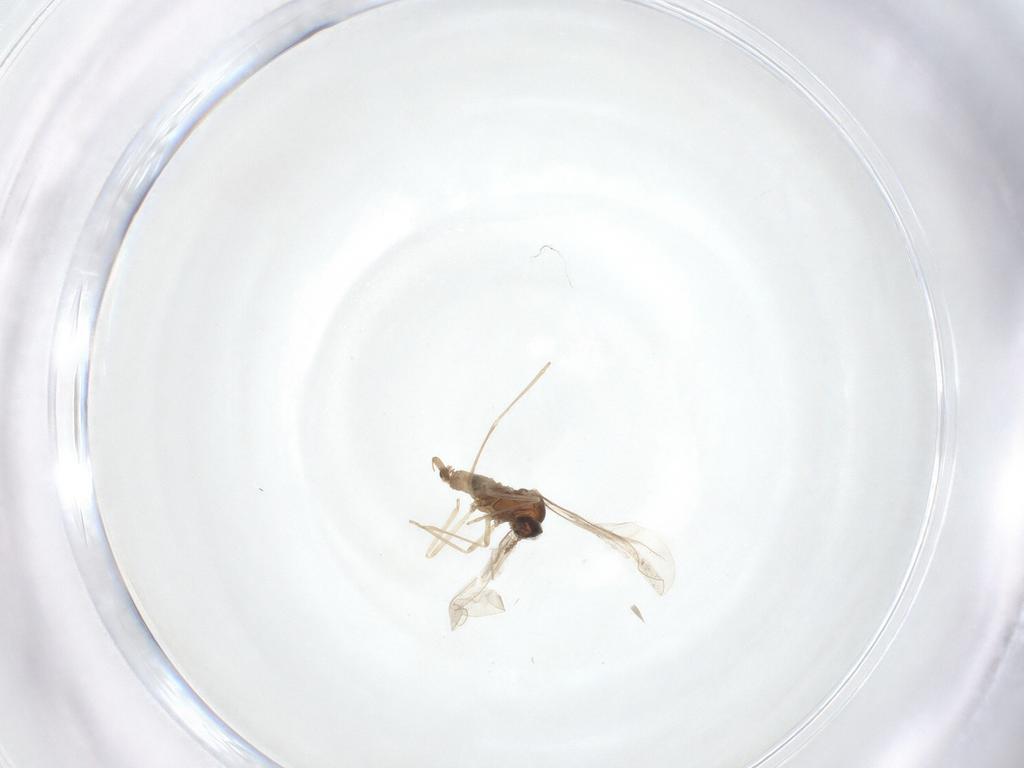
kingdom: Animalia
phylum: Arthropoda
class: Insecta
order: Diptera
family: Cecidomyiidae
